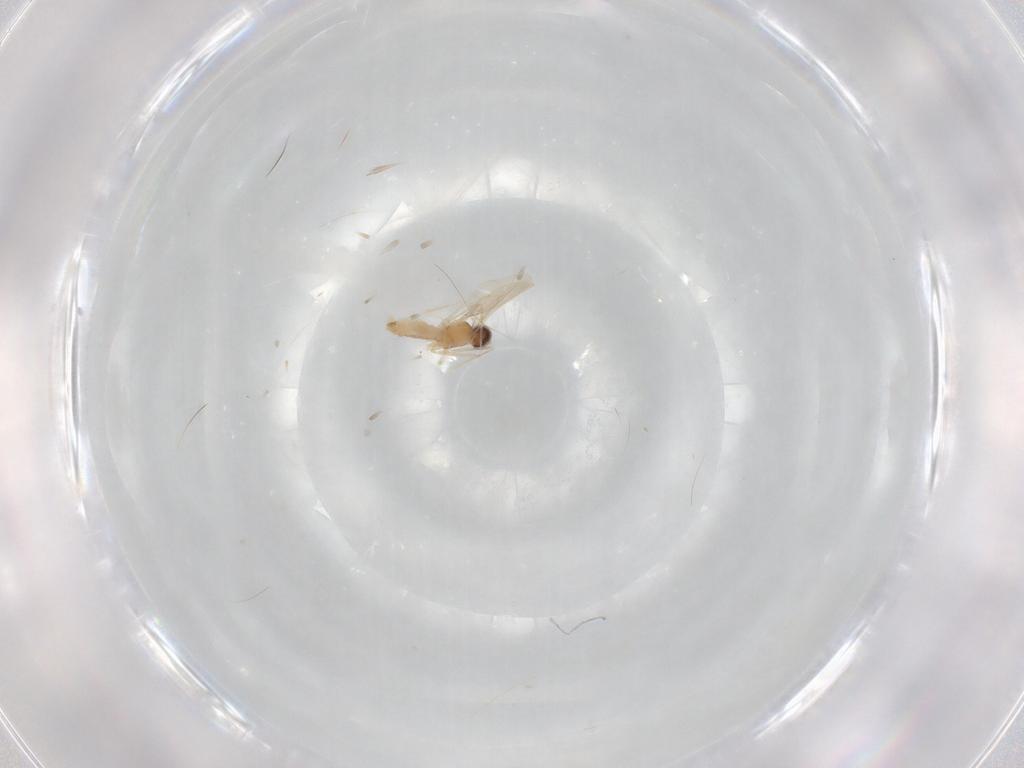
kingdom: Animalia
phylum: Arthropoda
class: Insecta
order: Diptera
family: Cecidomyiidae
